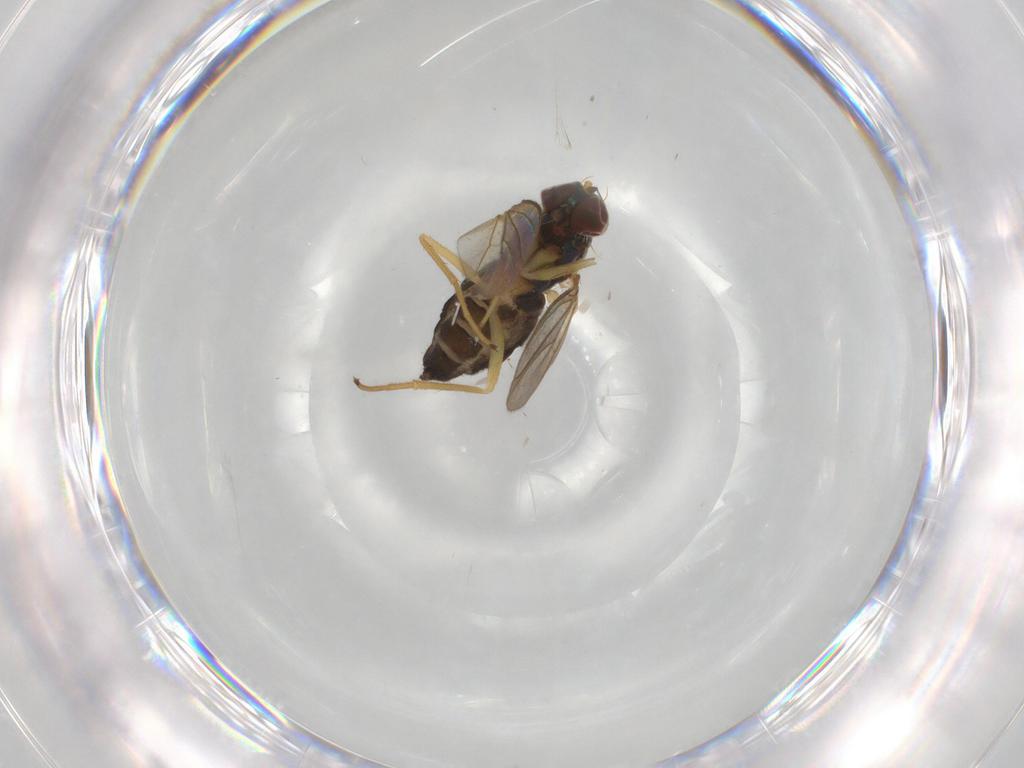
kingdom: Animalia
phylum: Arthropoda
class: Insecta
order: Diptera
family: Dolichopodidae
